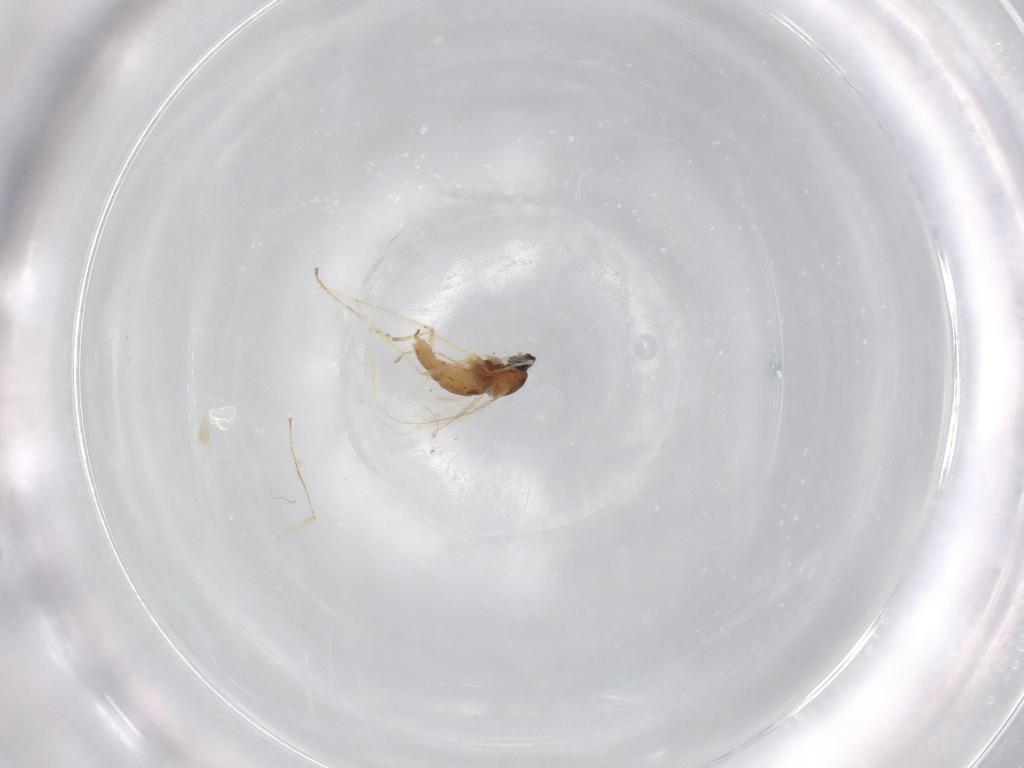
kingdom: Animalia
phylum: Arthropoda
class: Insecta
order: Diptera
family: Cecidomyiidae
